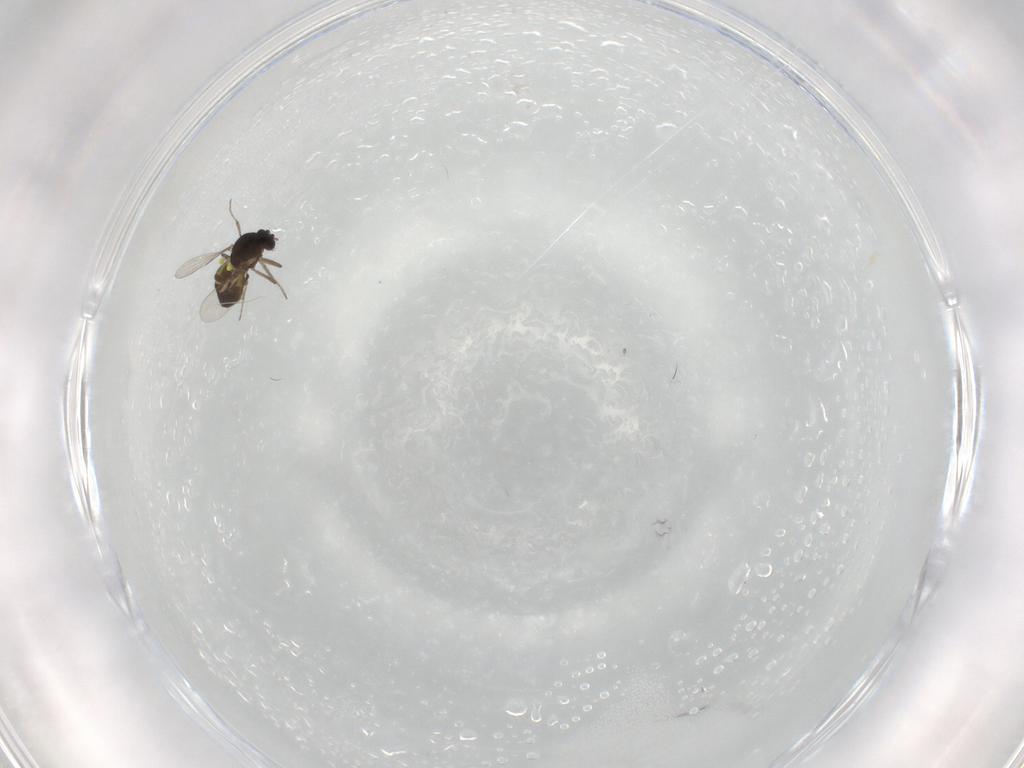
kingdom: Animalia
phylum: Arthropoda
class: Insecta
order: Diptera
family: Ceratopogonidae
